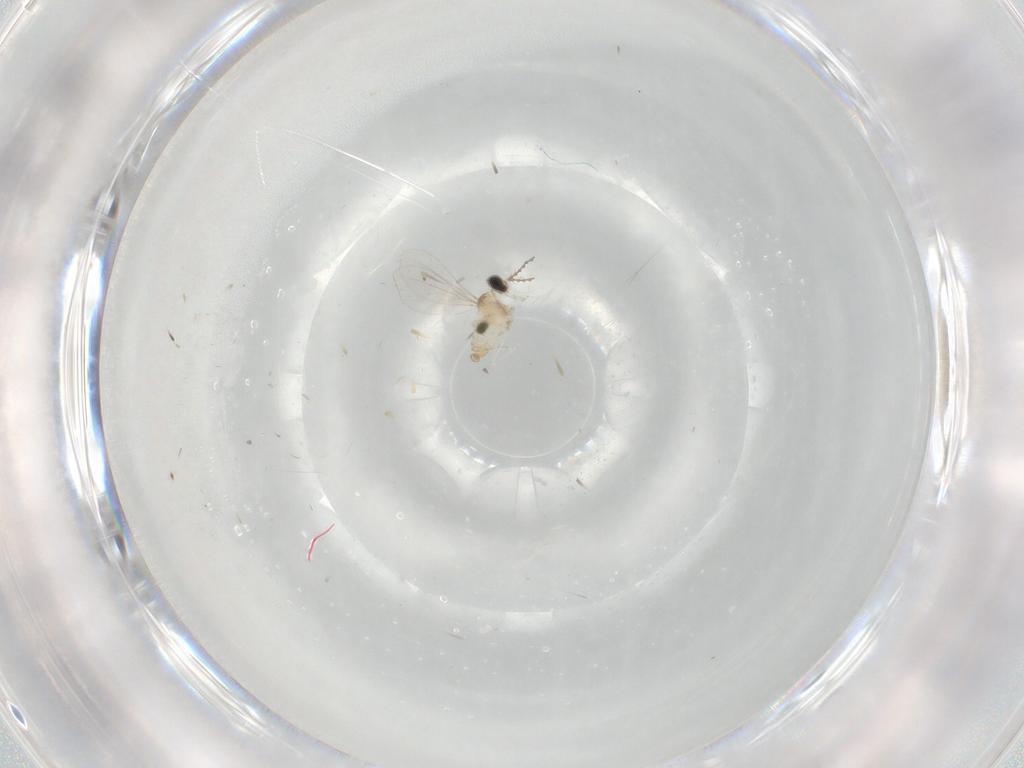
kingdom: Animalia
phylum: Arthropoda
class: Insecta
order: Diptera
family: Cecidomyiidae
